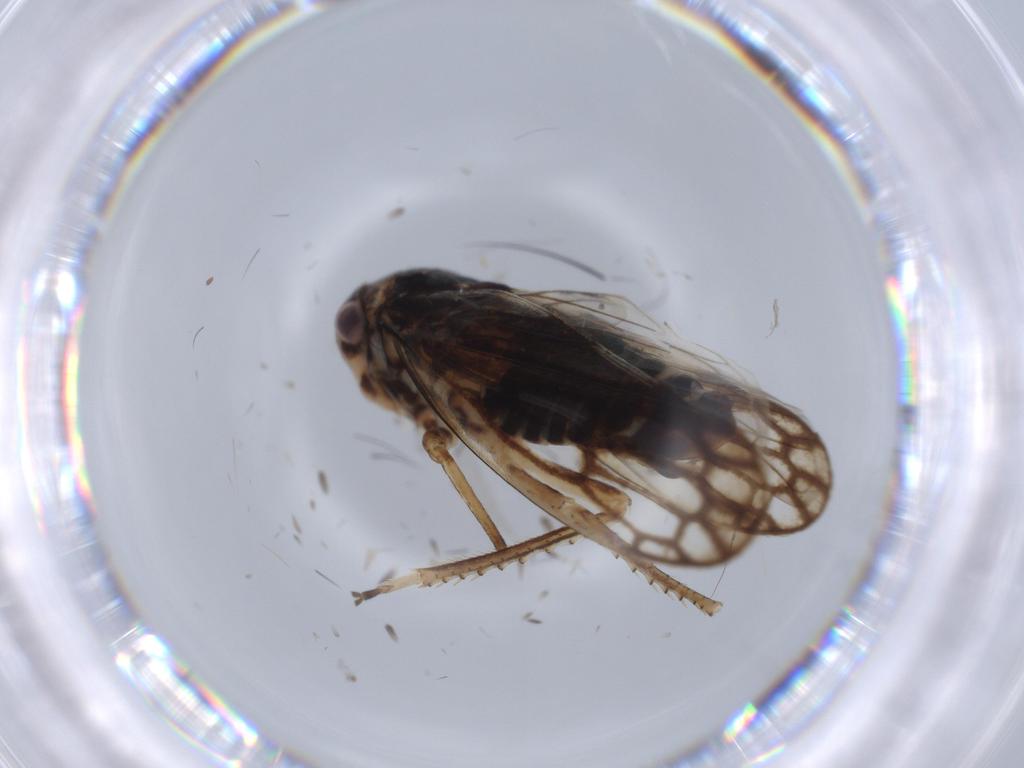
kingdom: Animalia
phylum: Arthropoda
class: Insecta
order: Hemiptera
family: Cicadellidae
